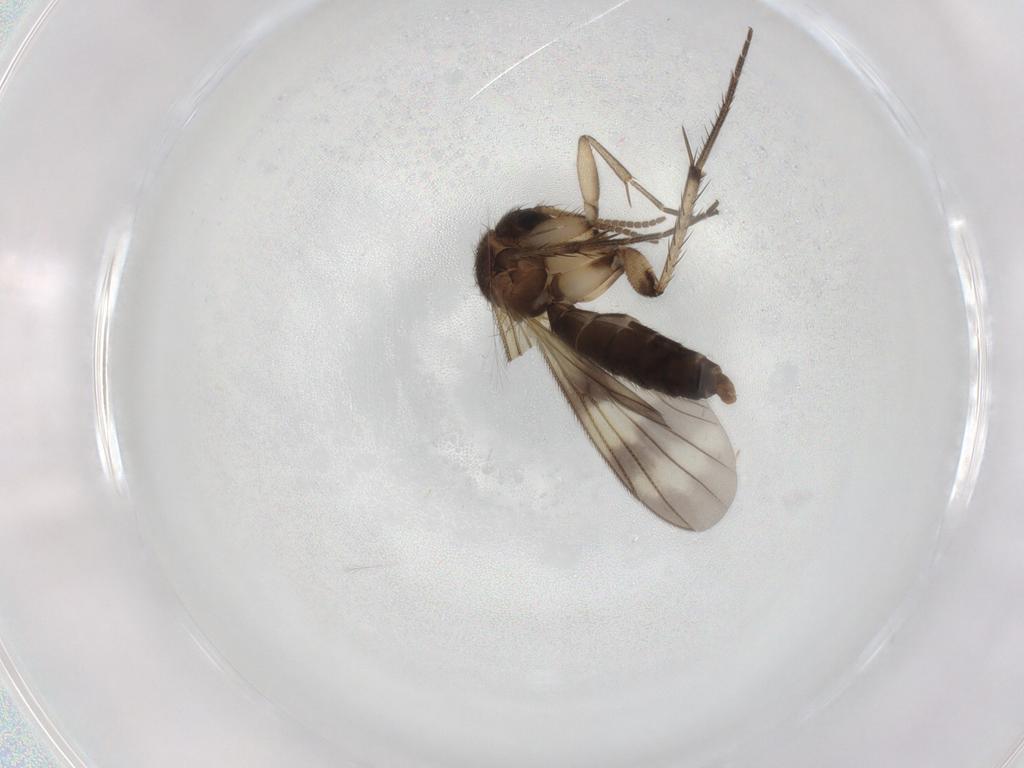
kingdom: Animalia
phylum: Arthropoda
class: Insecta
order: Diptera
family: Mycetophilidae
